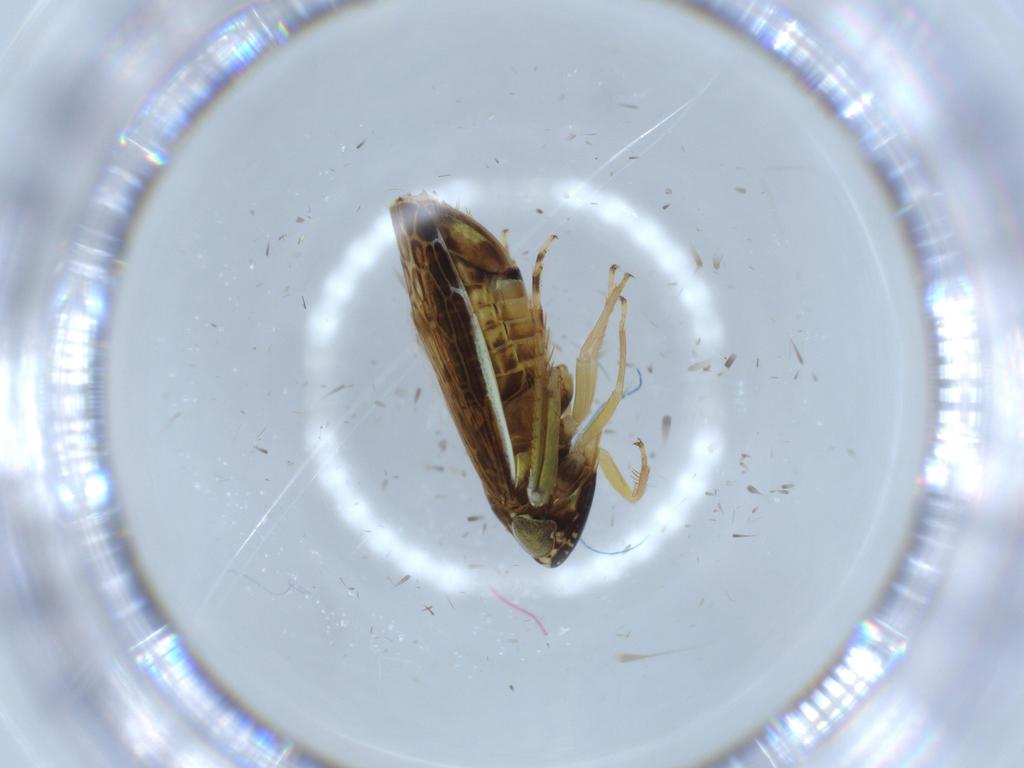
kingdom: Animalia
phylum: Arthropoda
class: Insecta
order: Hemiptera
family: Cicadellidae
